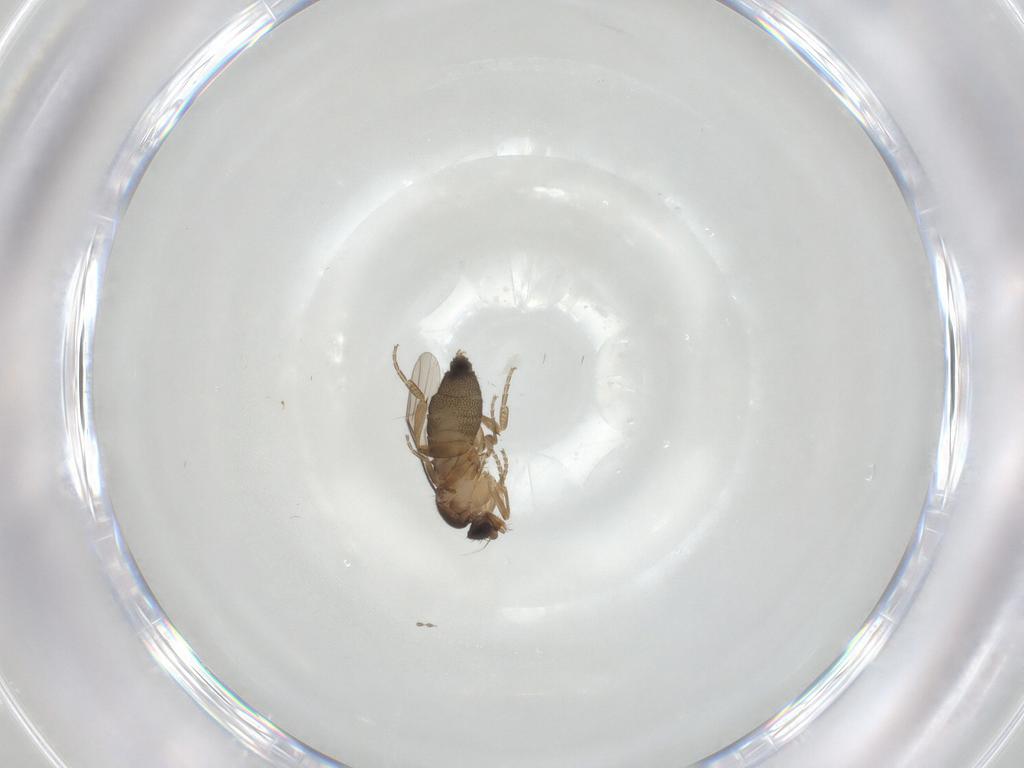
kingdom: Animalia
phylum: Arthropoda
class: Insecta
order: Diptera
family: Phoridae
